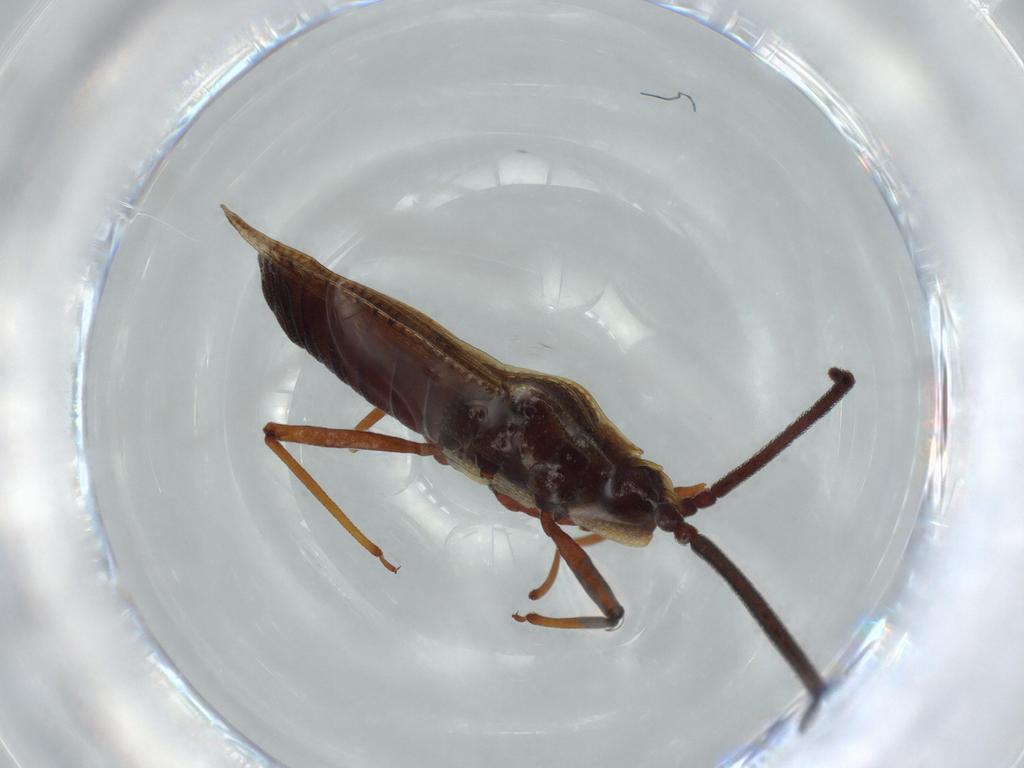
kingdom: Animalia
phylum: Arthropoda
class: Insecta
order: Hemiptera
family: Tingidae
